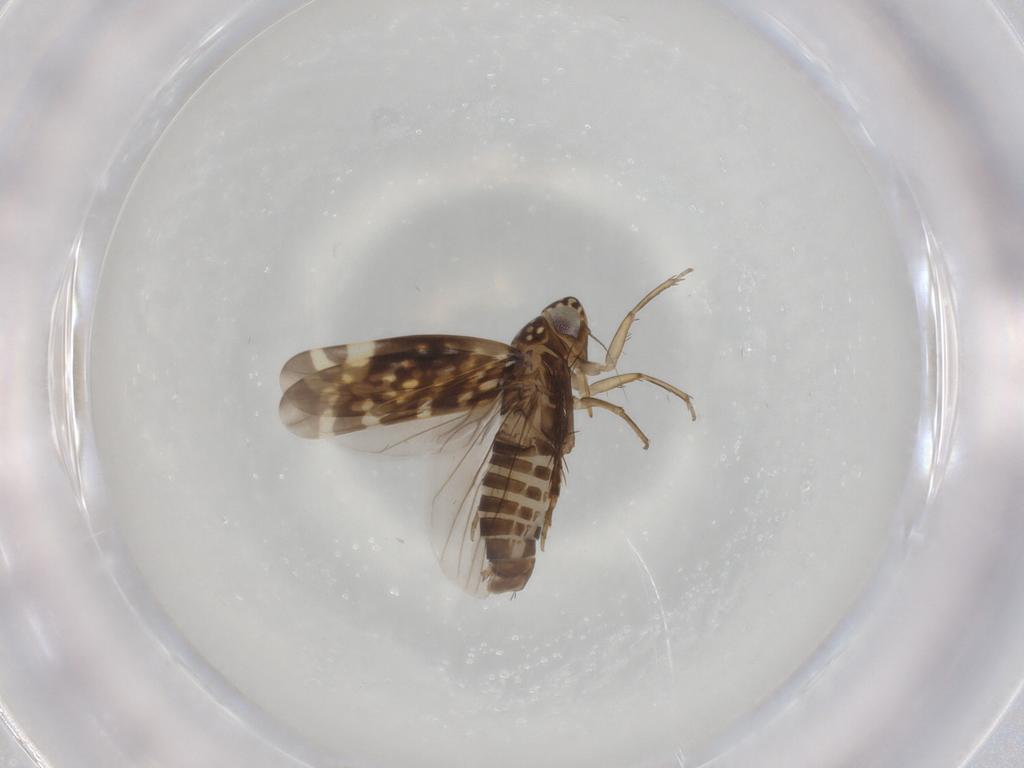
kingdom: Animalia
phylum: Arthropoda
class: Insecta
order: Hemiptera
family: Cicadellidae
